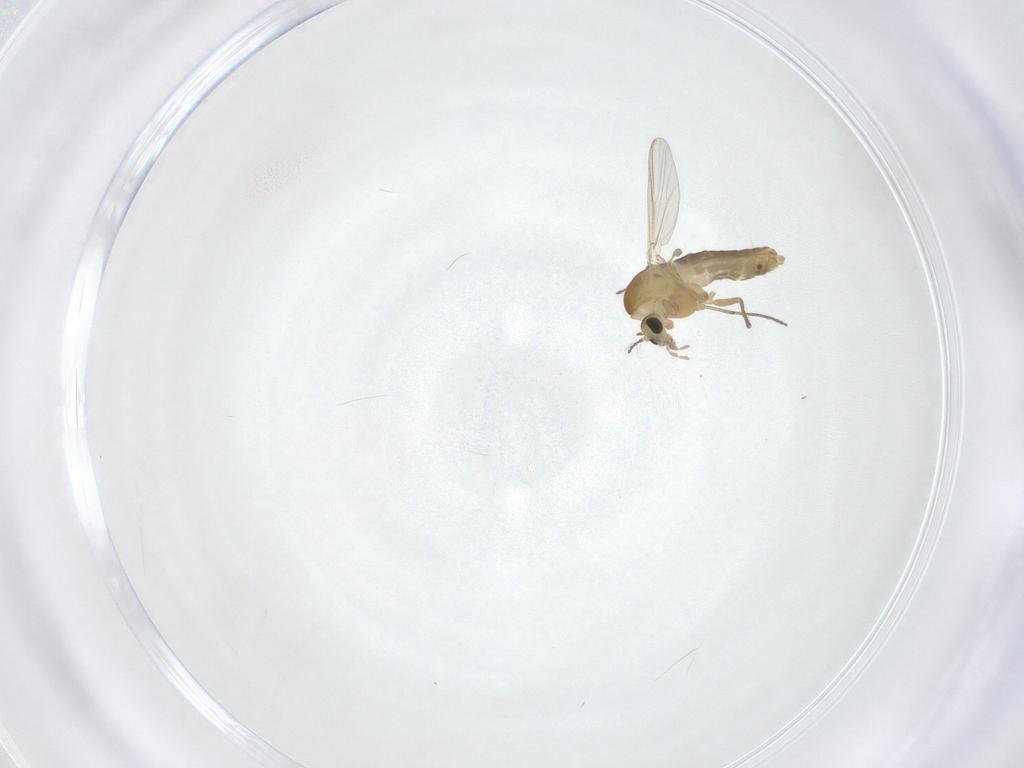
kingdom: Animalia
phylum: Arthropoda
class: Insecta
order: Diptera
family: Chironomidae
